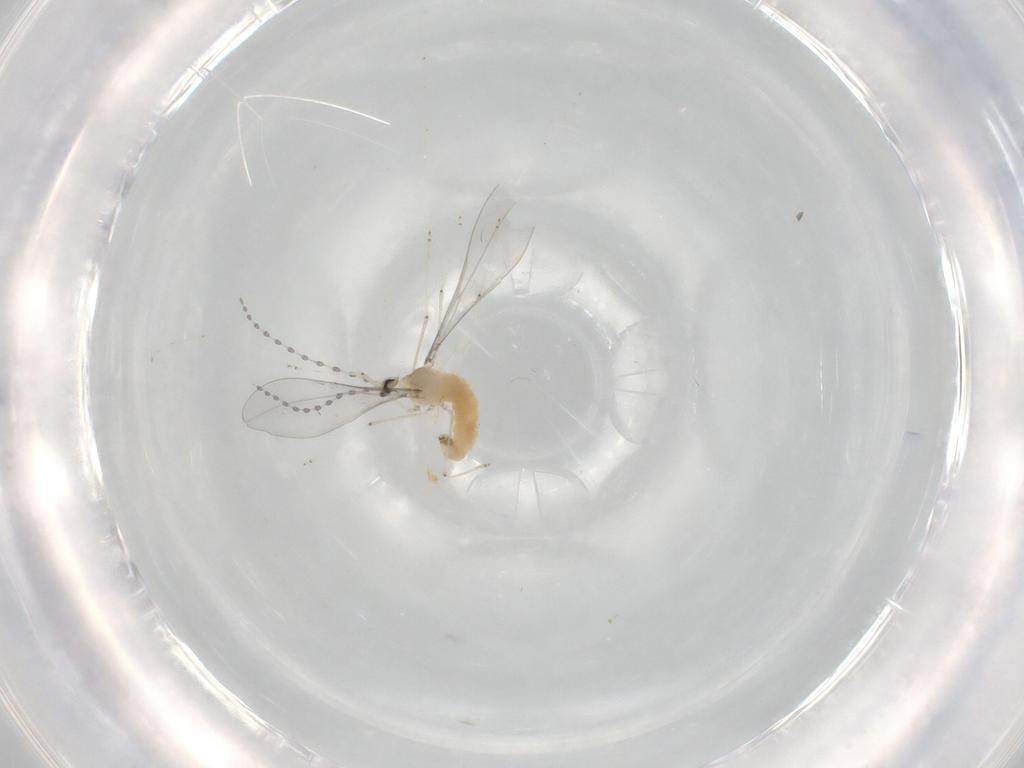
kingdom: Animalia
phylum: Arthropoda
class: Insecta
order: Diptera
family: Cecidomyiidae
